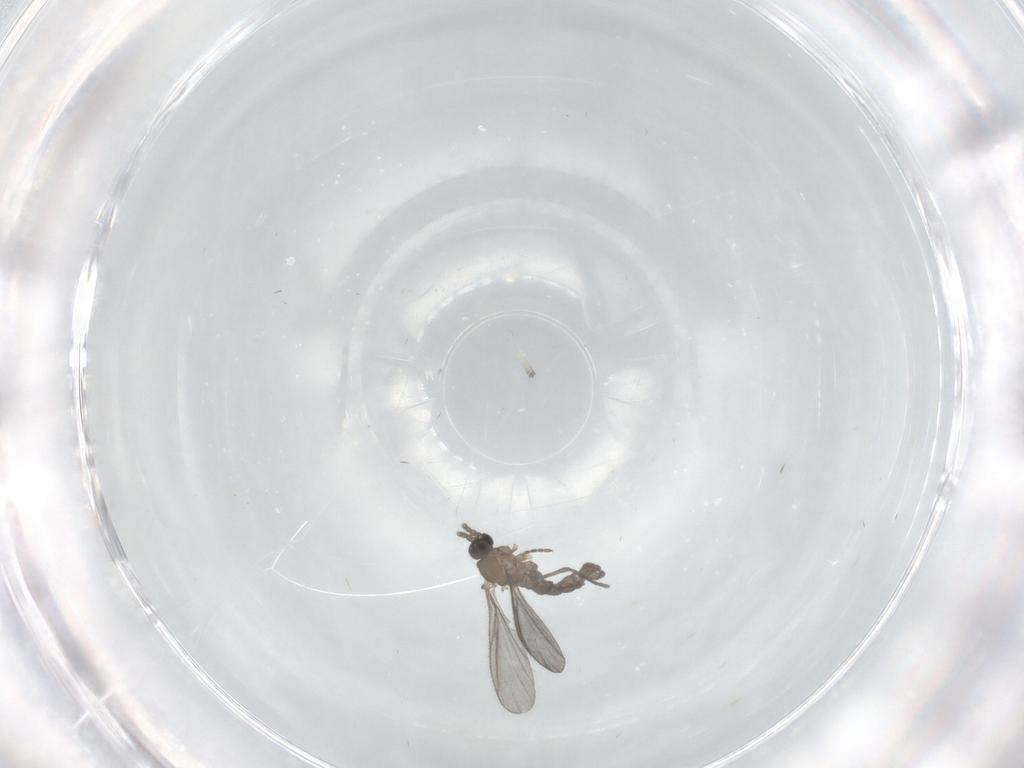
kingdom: Animalia
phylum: Arthropoda
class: Insecta
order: Diptera
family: Sciaridae
